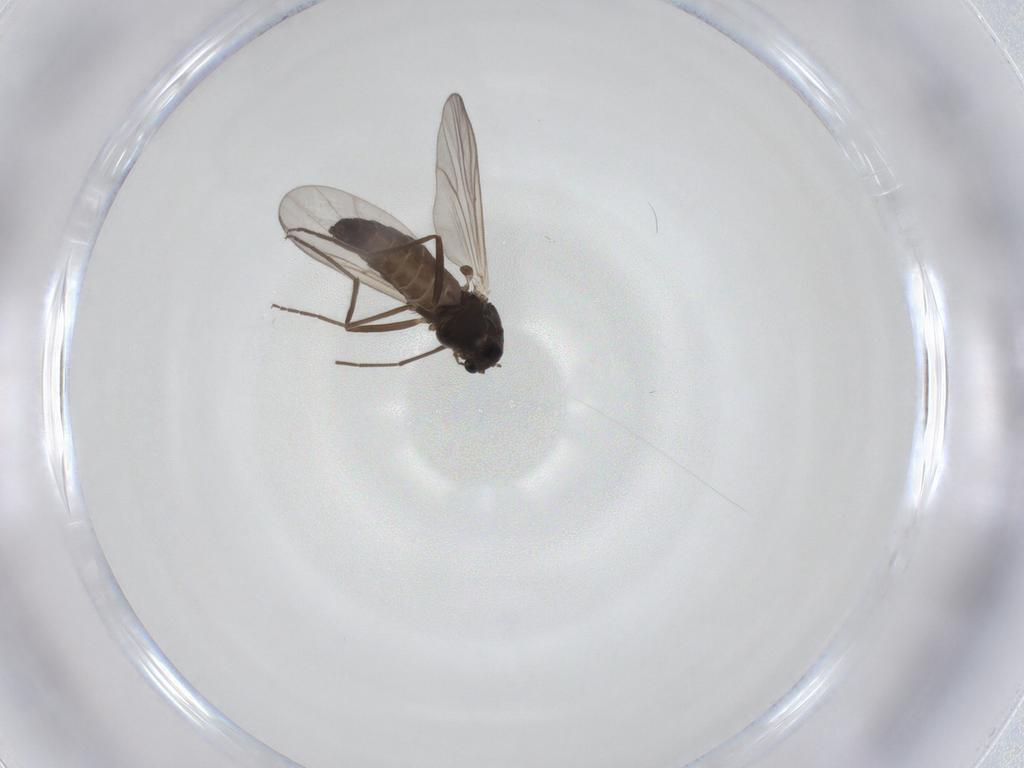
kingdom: Animalia
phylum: Arthropoda
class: Insecta
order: Diptera
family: Chironomidae
